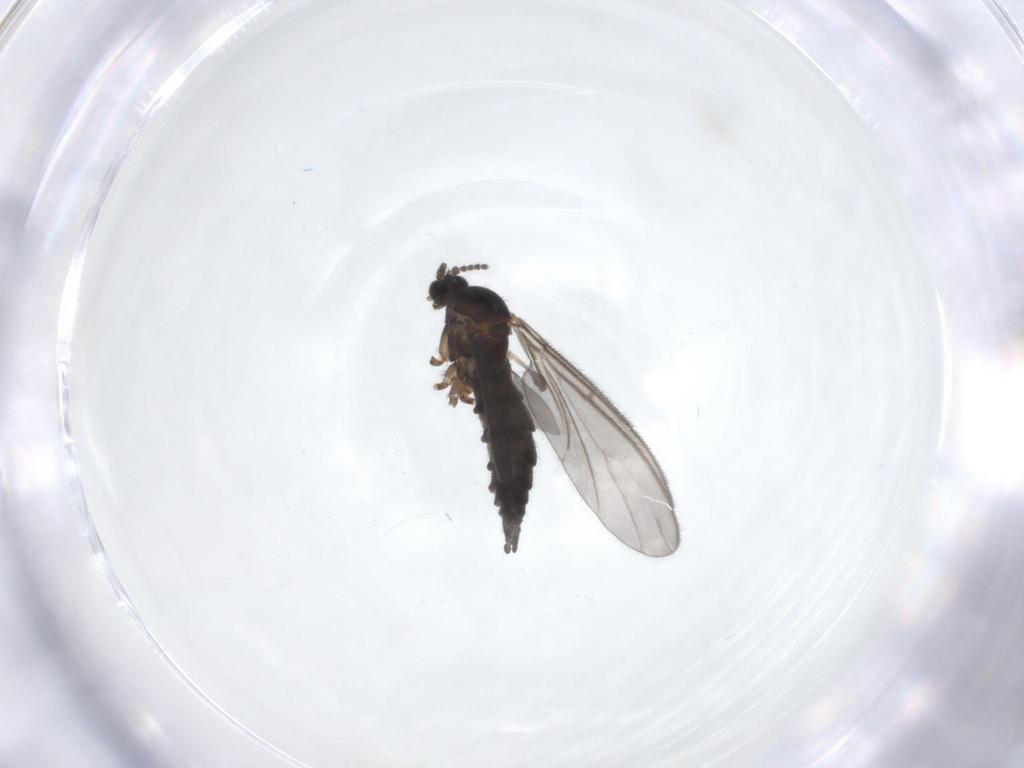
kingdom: Animalia
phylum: Arthropoda
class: Insecta
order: Diptera
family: Sciaridae
